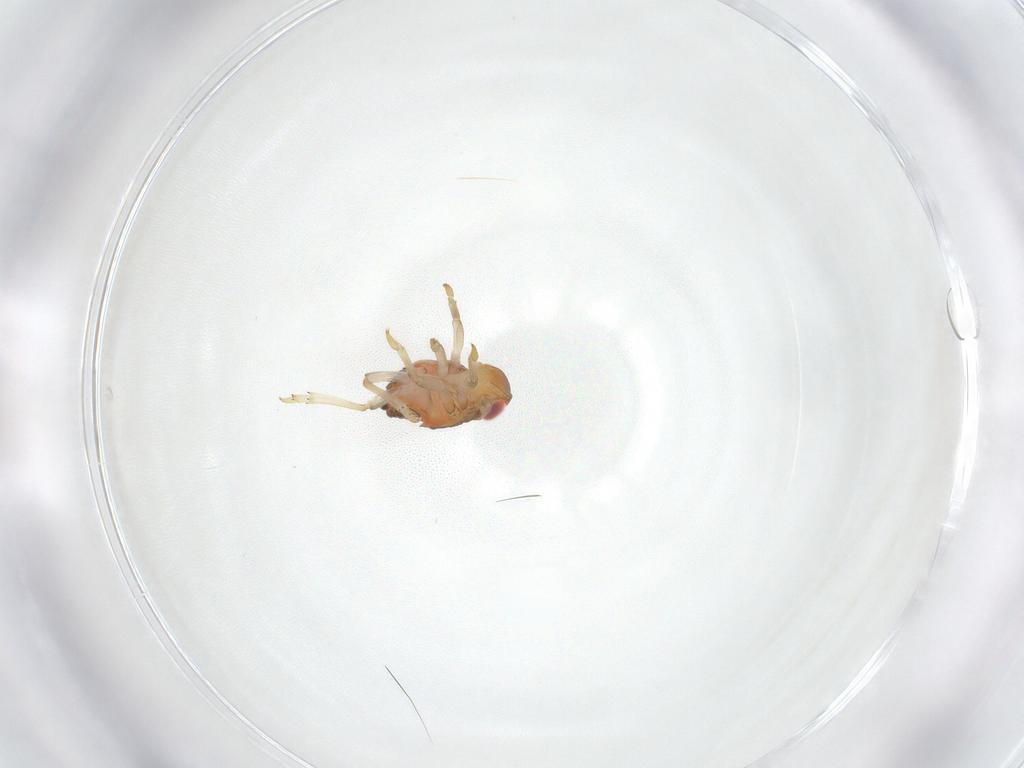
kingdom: Animalia
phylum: Arthropoda
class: Insecta
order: Hemiptera
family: Issidae
